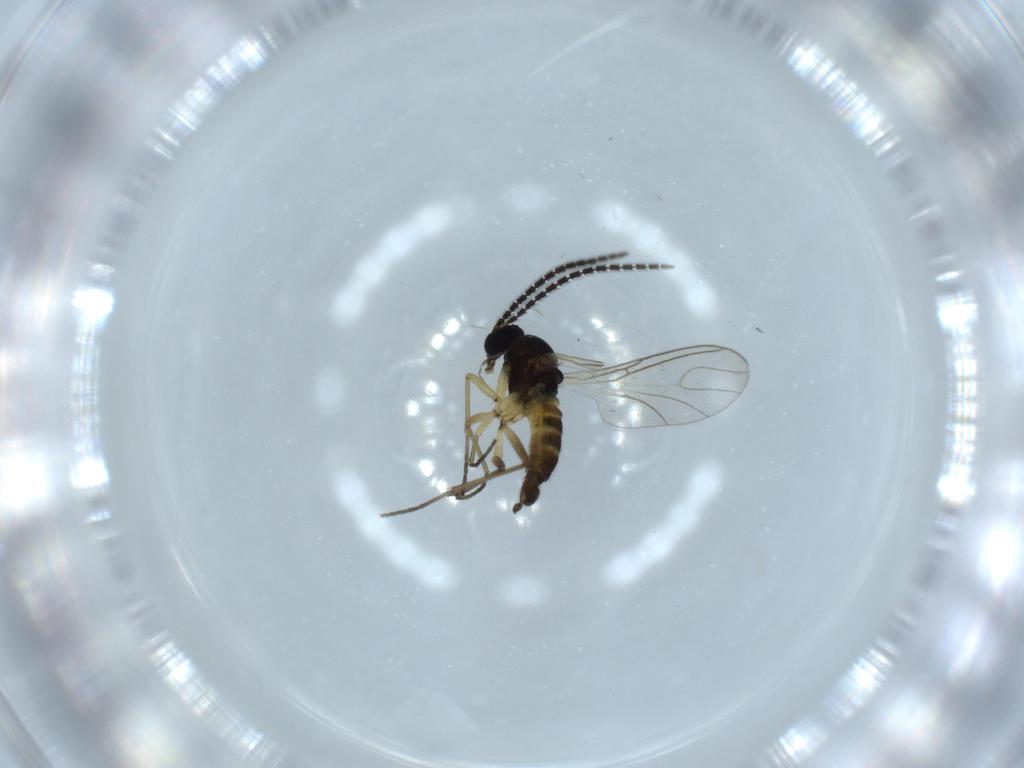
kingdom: Animalia
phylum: Arthropoda
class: Insecta
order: Diptera
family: Sciaridae
